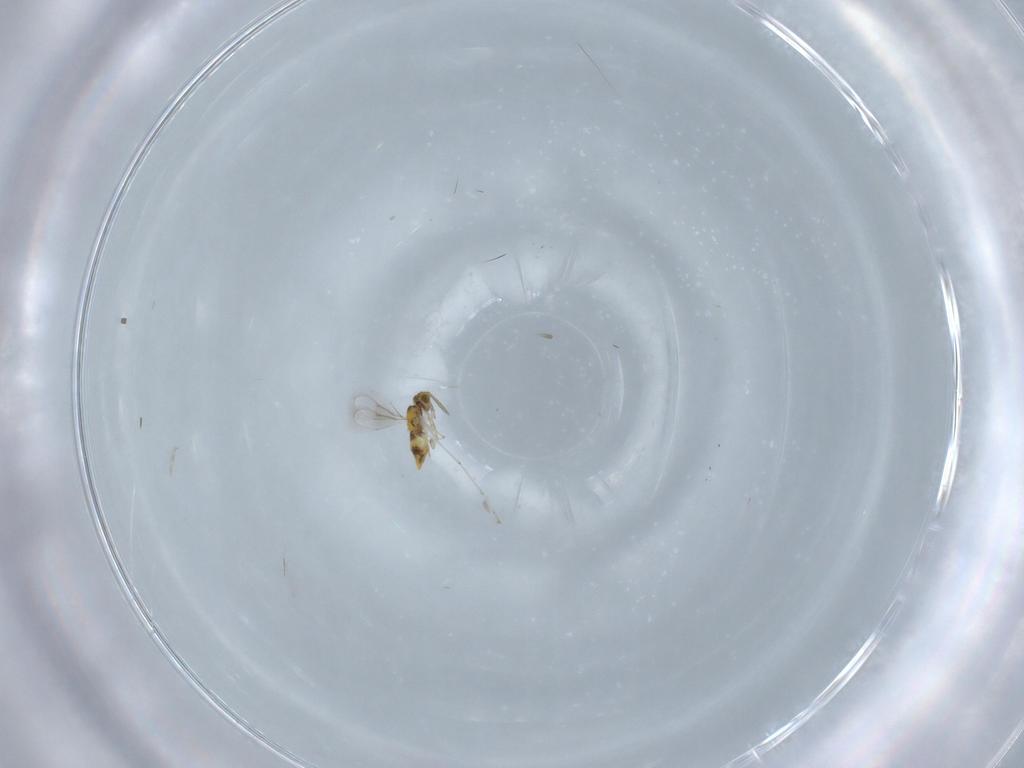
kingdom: Animalia
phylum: Arthropoda
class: Insecta
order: Hymenoptera
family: Aphelinidae
